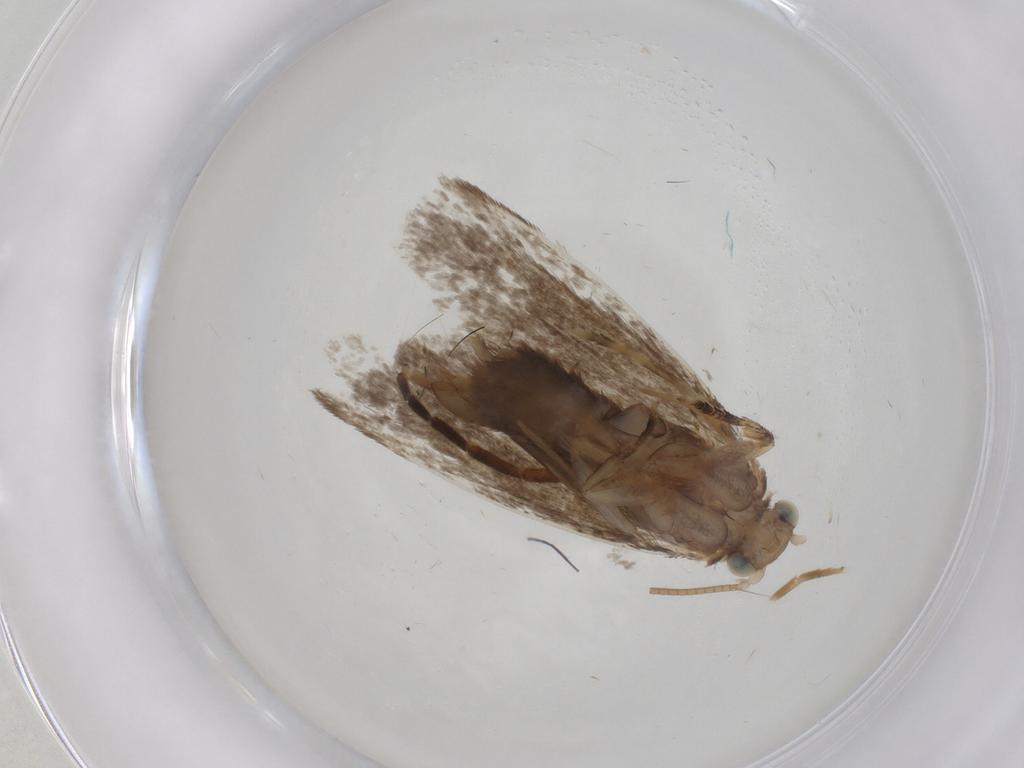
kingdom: Animalia
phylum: Arthropoda
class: Insecta
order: Lepidoptera
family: Dryadaulidae
